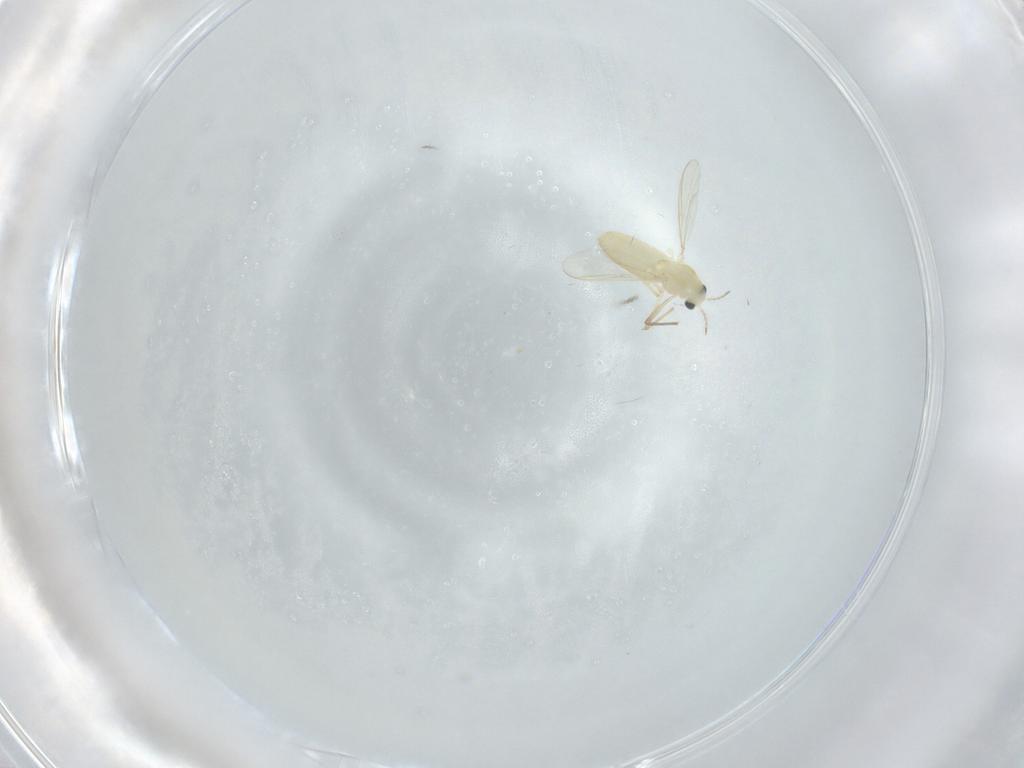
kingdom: Animalia
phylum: Arthropoda
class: Insecta
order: Diptera
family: Chironomidae
